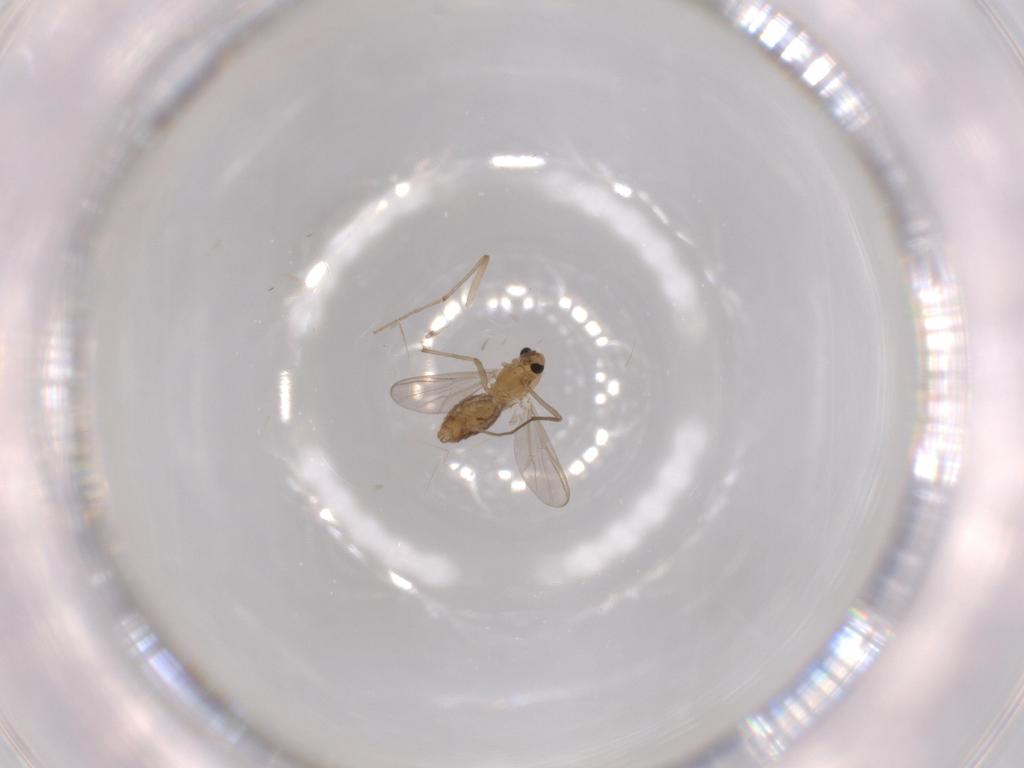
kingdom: Animalia
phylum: Arthropoda
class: Insecta
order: Diptera
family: Chironomidae
